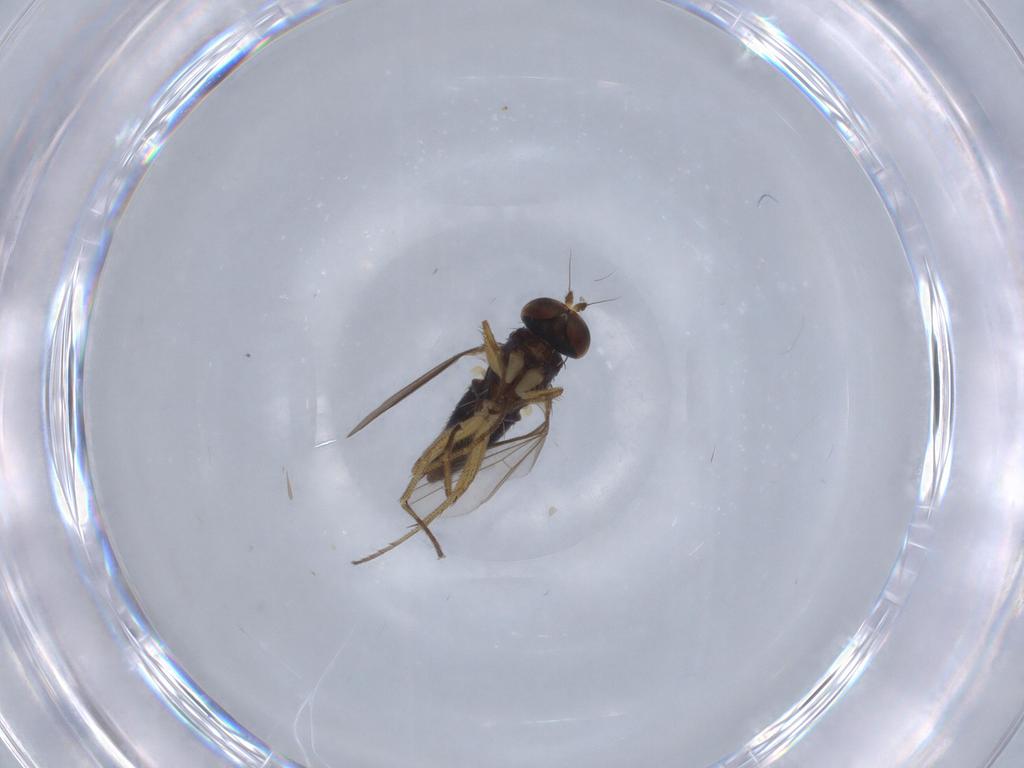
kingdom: Animalia
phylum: Arthropoda
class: Insecta
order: Diptera
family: Dolichopodidae
